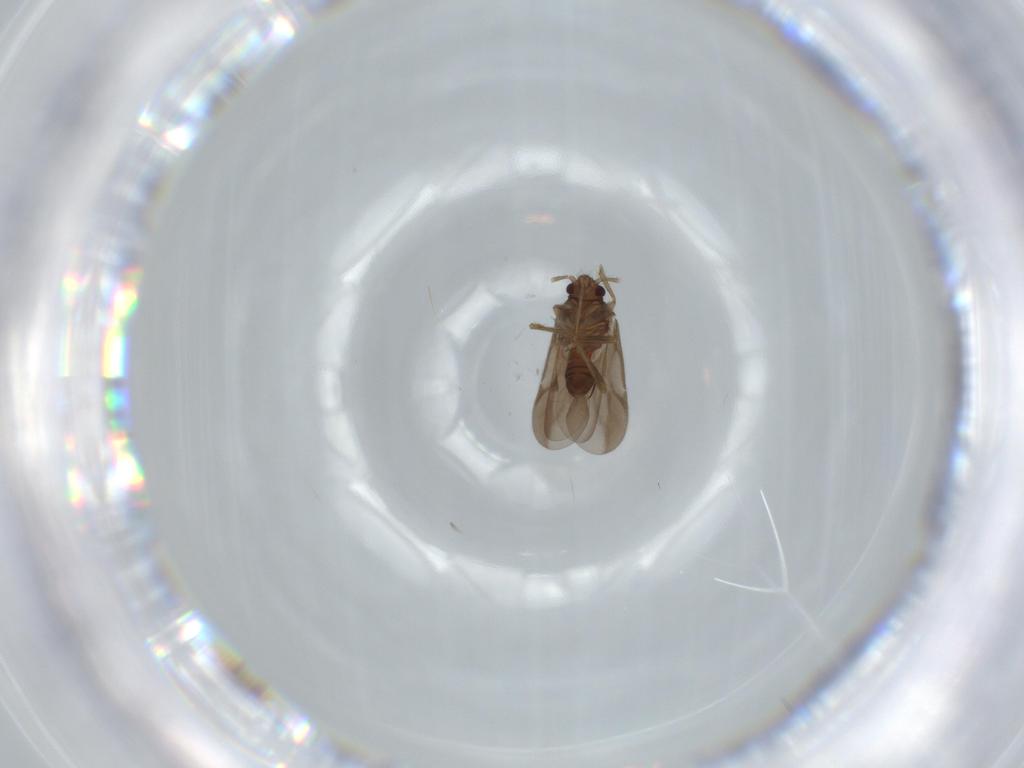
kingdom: Animalia
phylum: Arthropoda
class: Insecta
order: Hemiptera
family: Ceratocombidae
